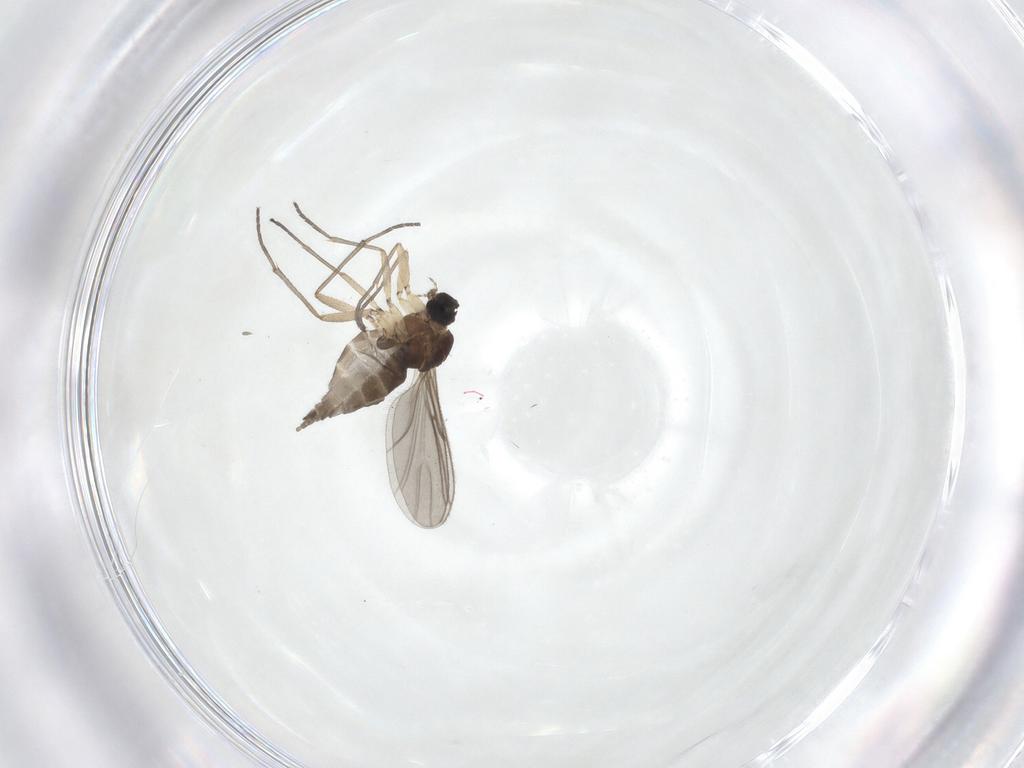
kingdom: Animalia
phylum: Arthropoda
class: Insecta
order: Diptera
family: Sciaridae
